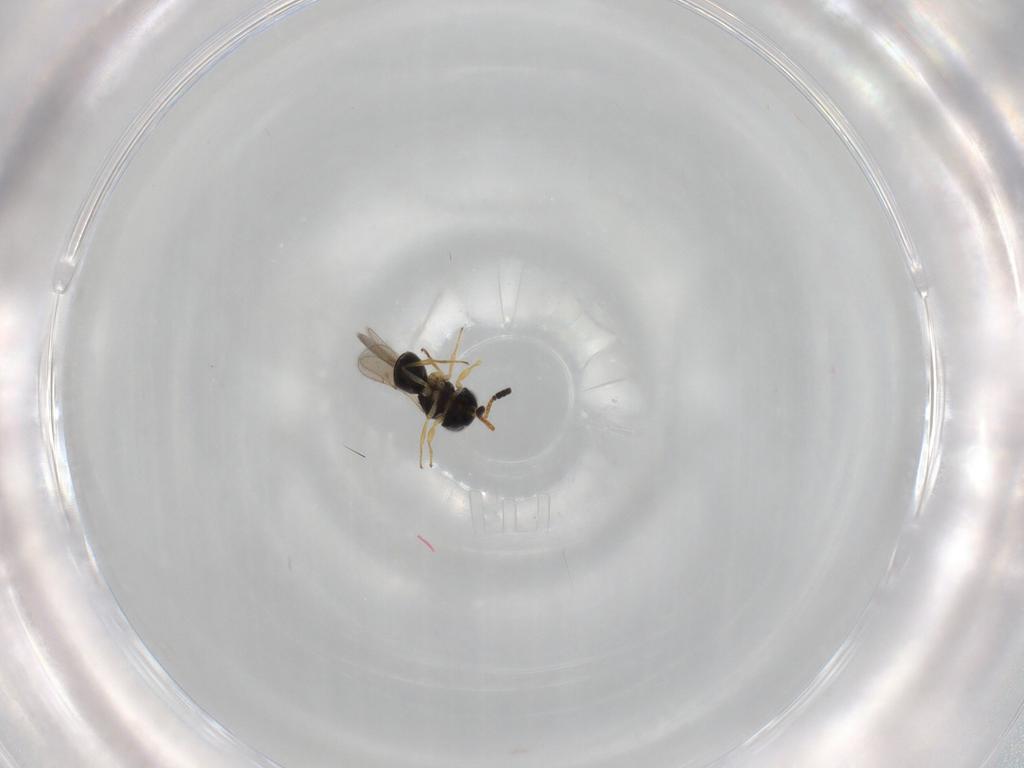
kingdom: Animalia
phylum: Arthropoda
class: Insecta
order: Hymenoptera
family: Scelionidae
